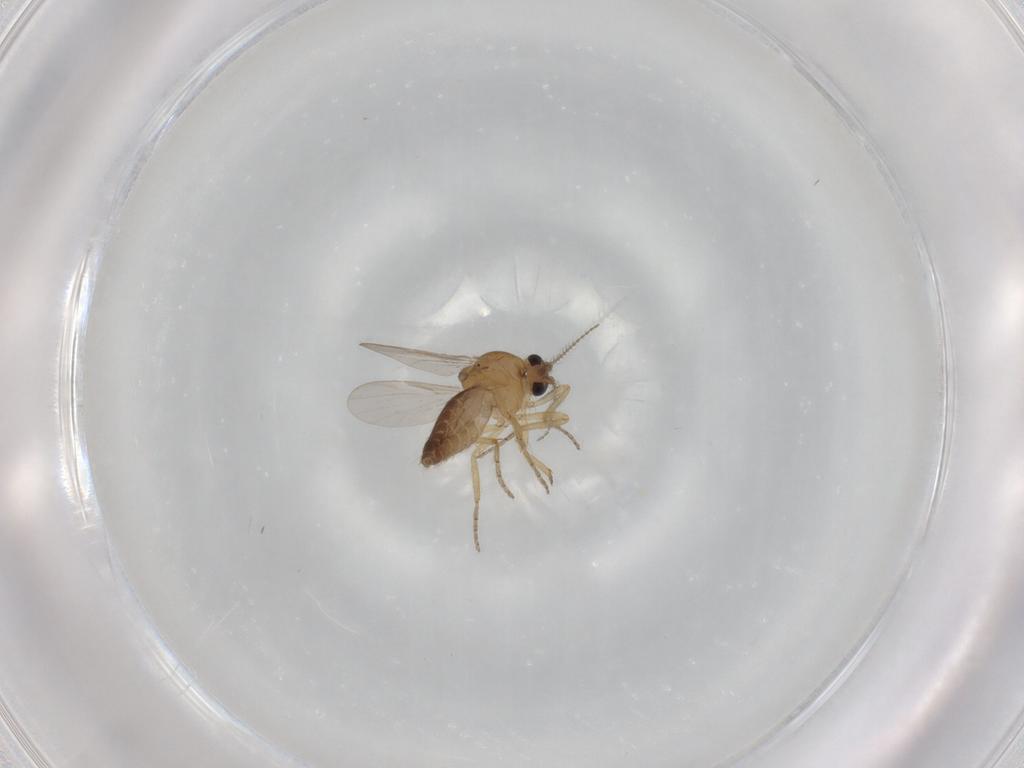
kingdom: Animalia
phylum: Arthropoda
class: Insecta
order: Diptera
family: Ceratopogonidae
